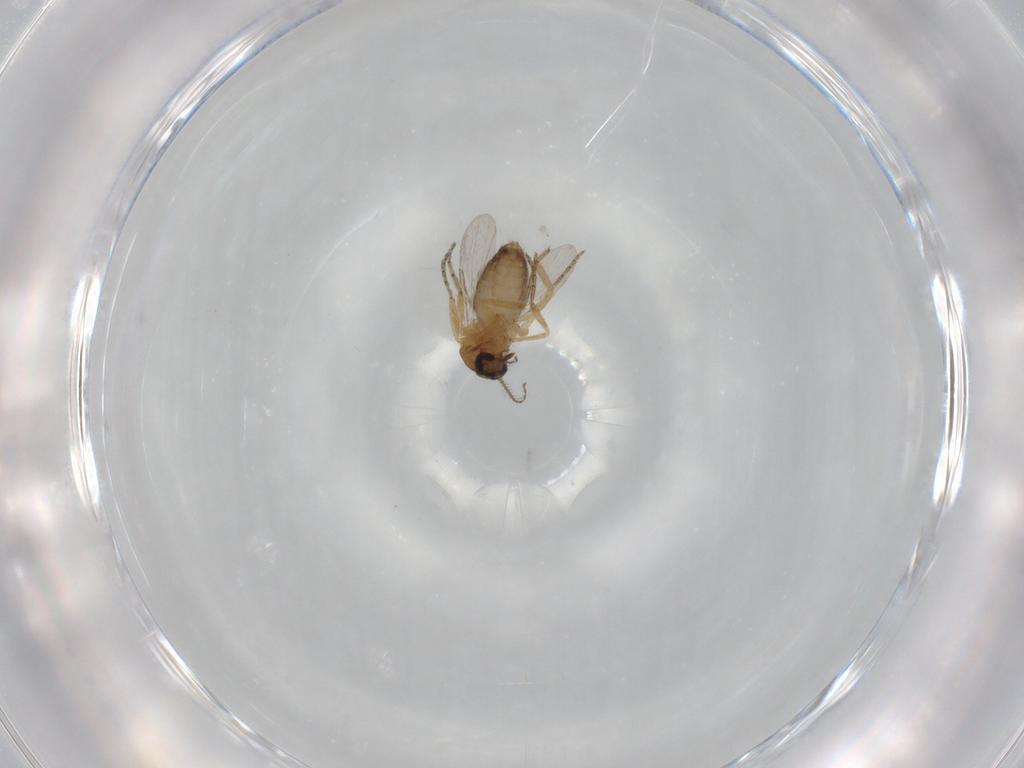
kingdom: Animalia
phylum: Arthropoda
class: Insecta
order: Diptera
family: Ceratopogonidae
